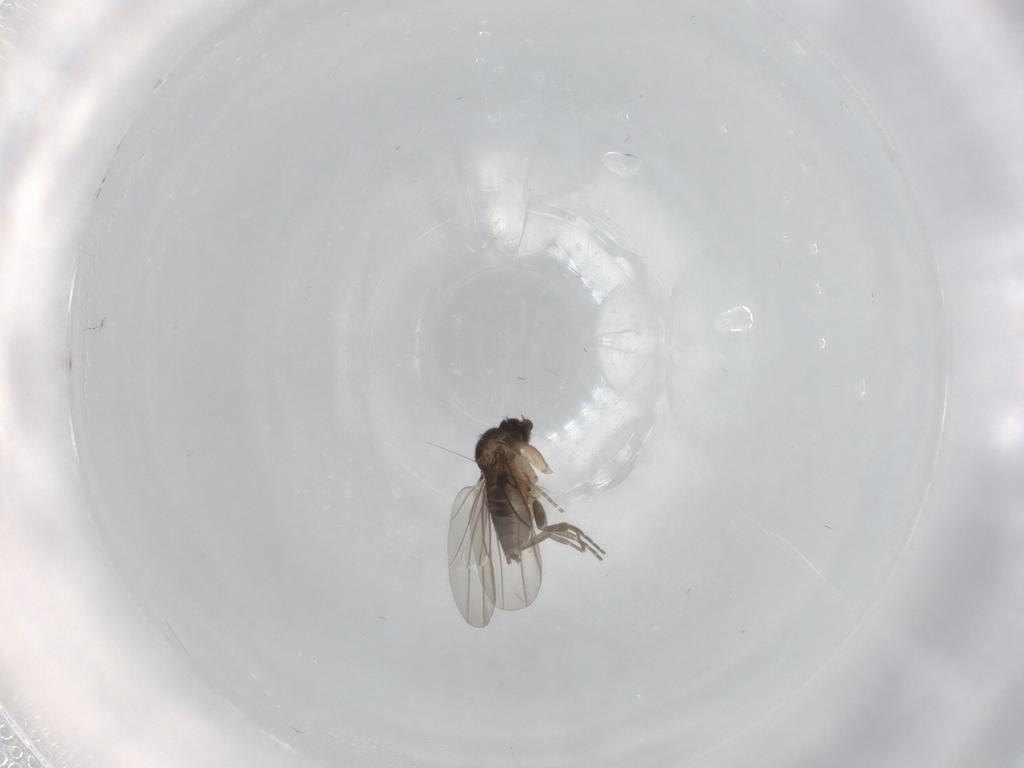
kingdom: Animalia
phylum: Arthropoda
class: Insecta
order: Diptera
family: Phoridae
